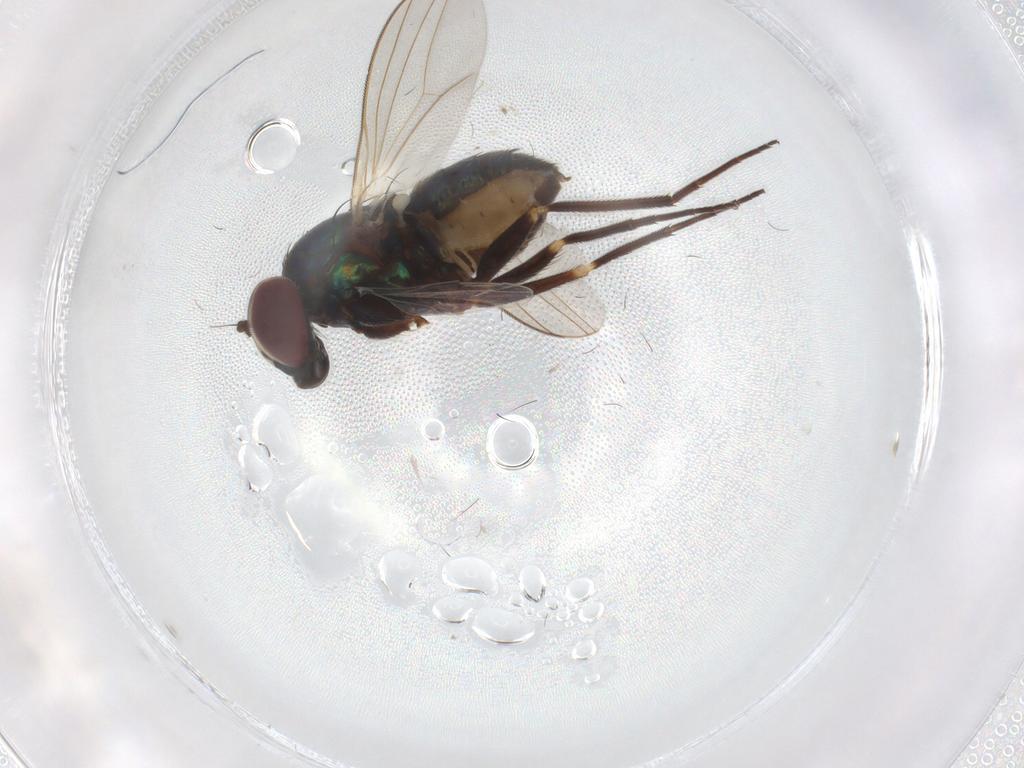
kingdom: Animalia
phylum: Arthropoda
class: Insecta
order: Diptera
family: Dolichopodidae
